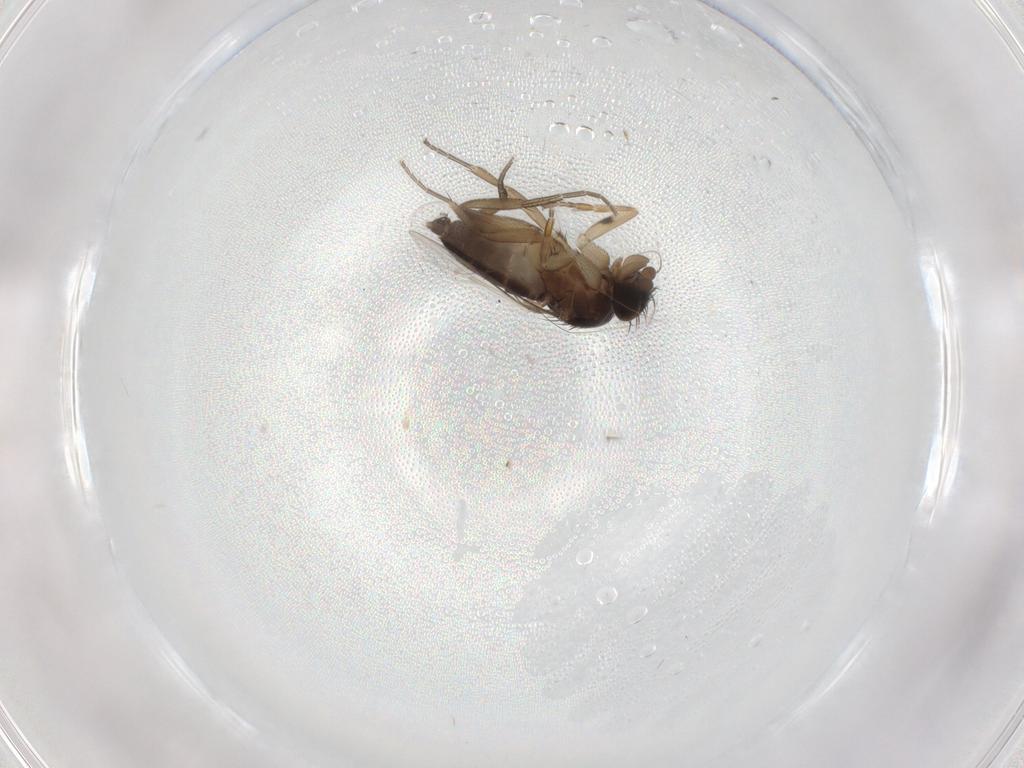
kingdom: Animalia
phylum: Arthropoda
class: Insecta
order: Diptera
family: Phoridae
